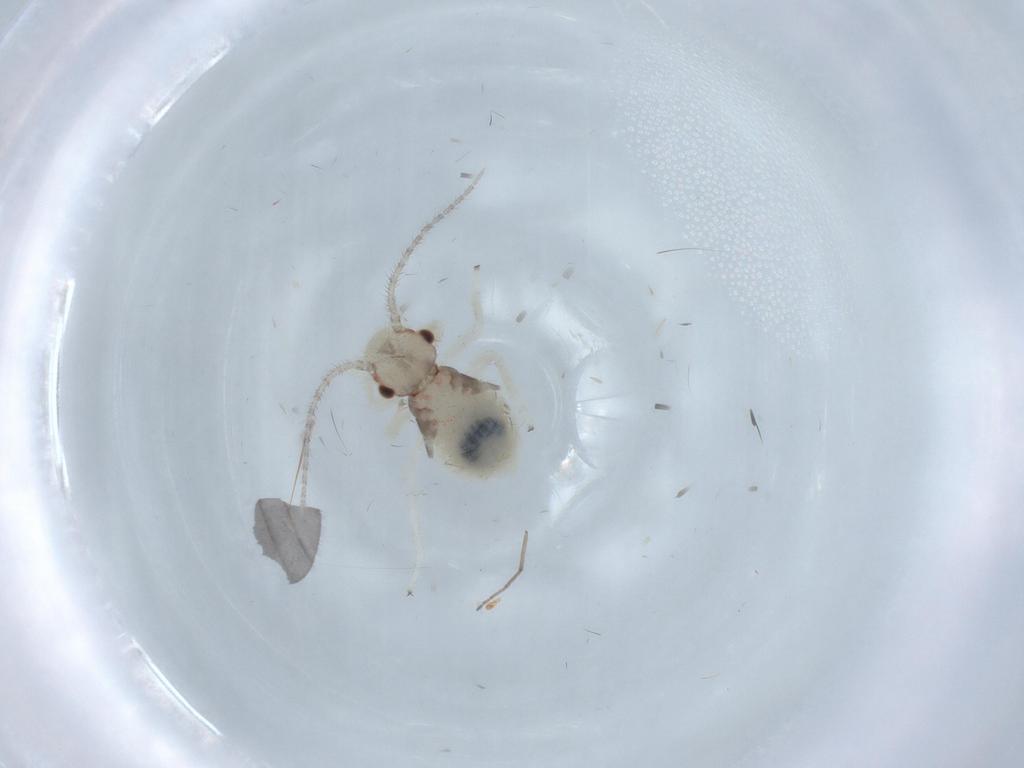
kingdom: Animalia
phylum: Arthropoda
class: Insecta
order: Psocodea
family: Amphipsocidae
